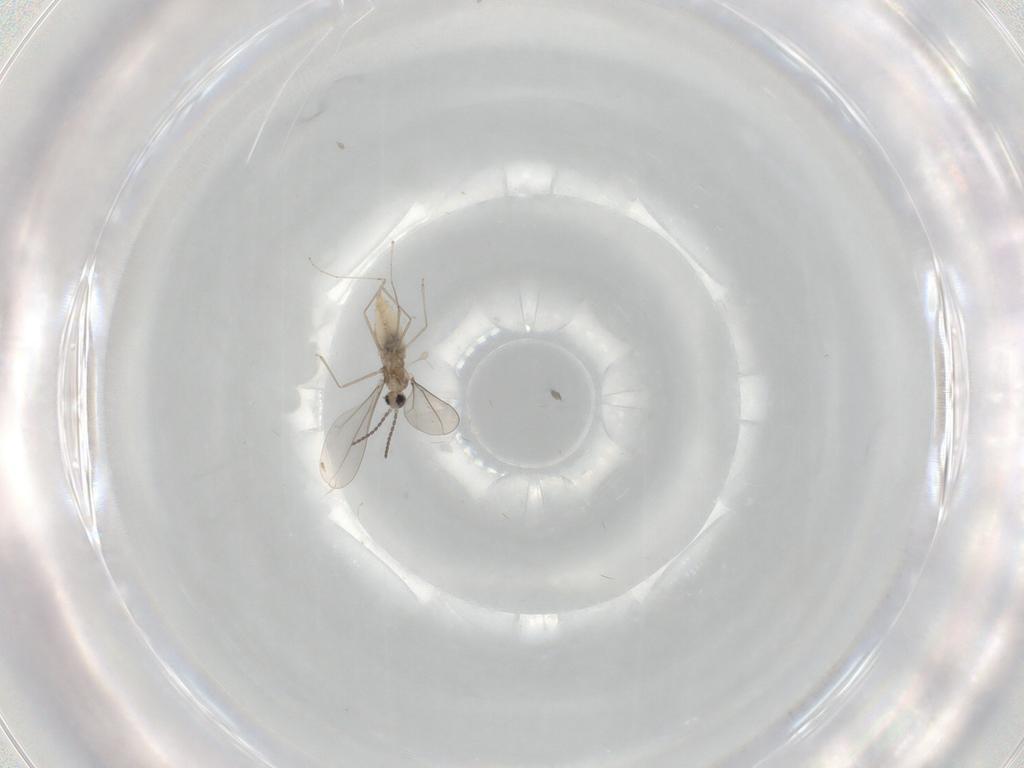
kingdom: Animalia
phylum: Arthropoda
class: Insecta
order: Diptera
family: Cecidomyiidae
